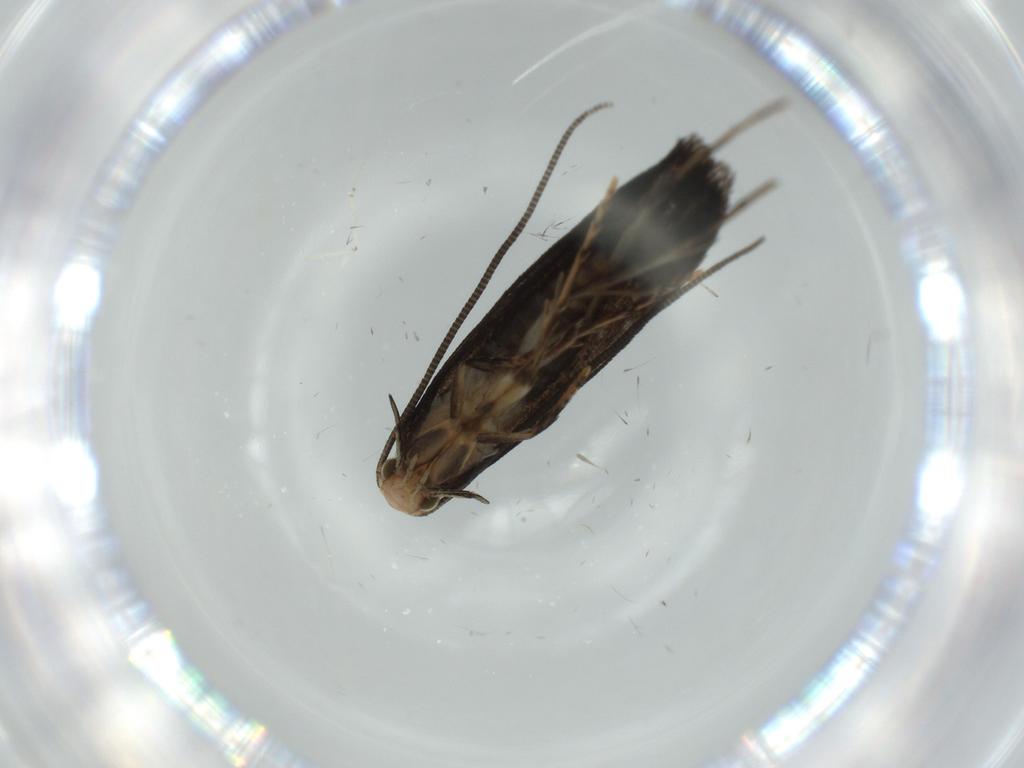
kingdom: Animalia
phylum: Arthropoda
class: Insecta
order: Lepidoptera
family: Tineidae
